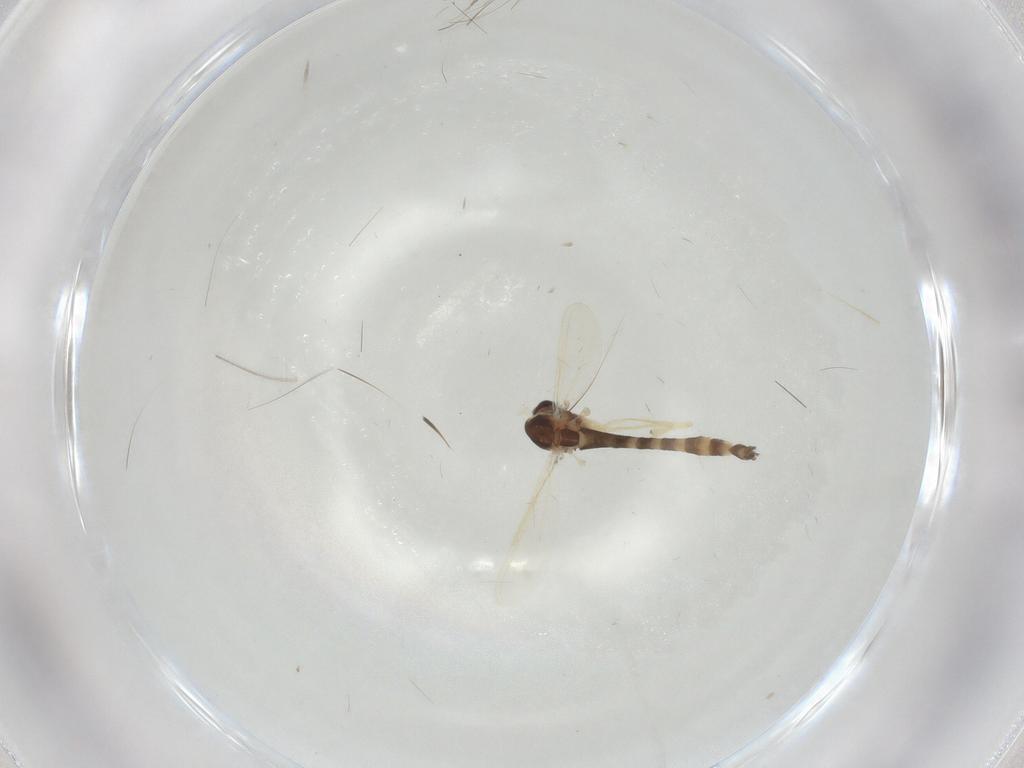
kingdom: Animalia
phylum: Arthropoda
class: Insecta
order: Diptera
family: Chironomidae
